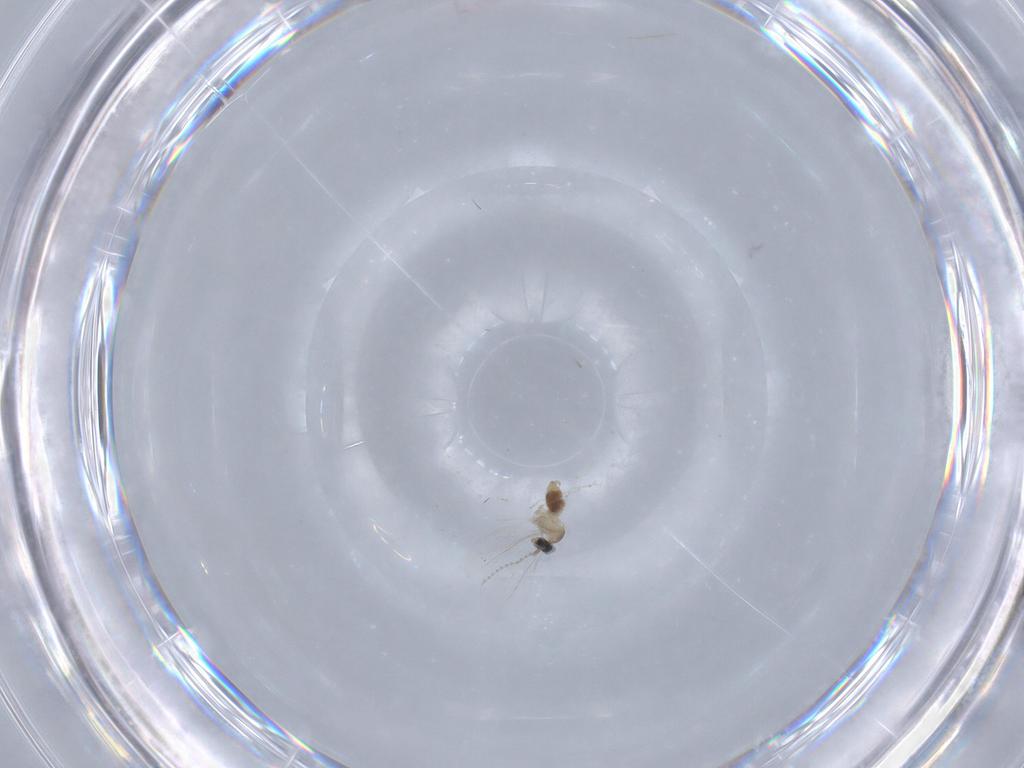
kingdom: Animalia
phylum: Arthropoda
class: Insecta
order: Diptera
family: Cecidomyiidae
